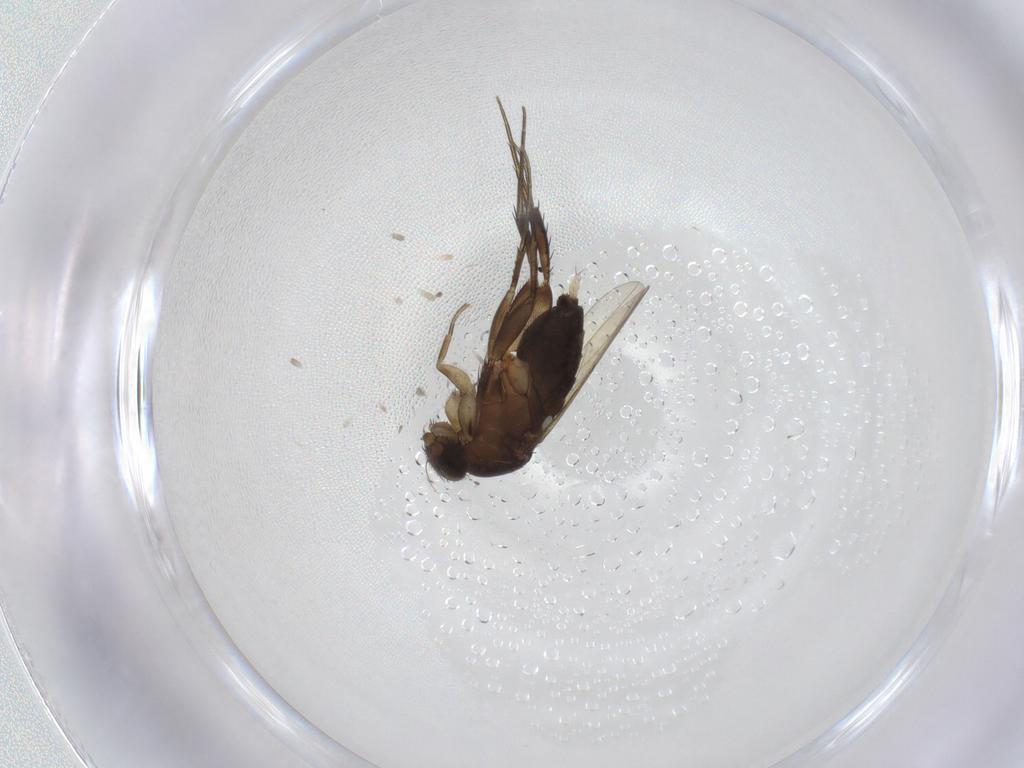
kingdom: Animalia
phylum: Arthropoda
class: Insecta
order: Diptera
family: Phoridae
